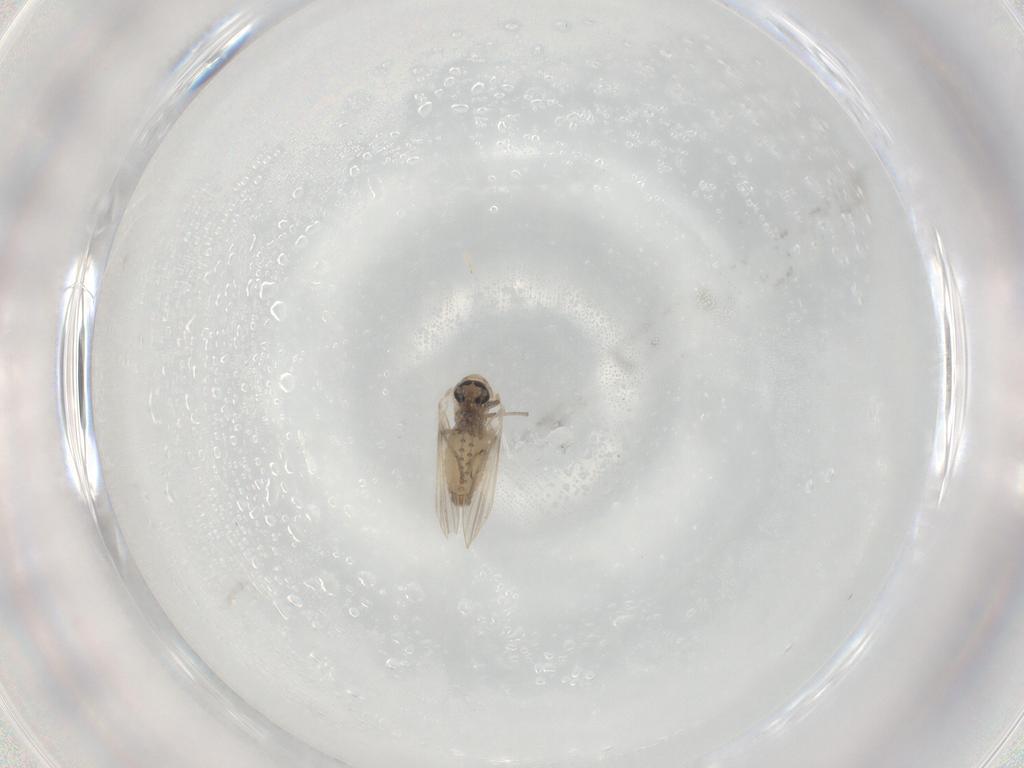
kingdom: Animalia
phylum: Arthropoda
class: Insecta
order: Diptera
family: Psychodidae
